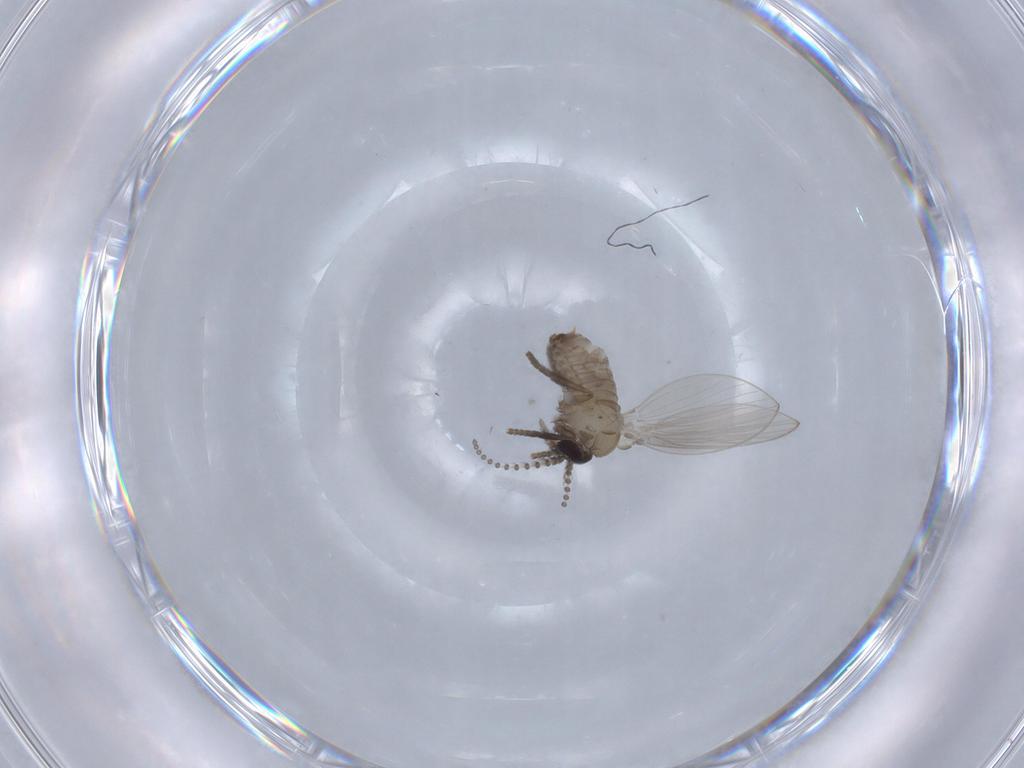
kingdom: Animalia
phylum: Arthropoda
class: Insecta
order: Diptera
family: Psychodidae
